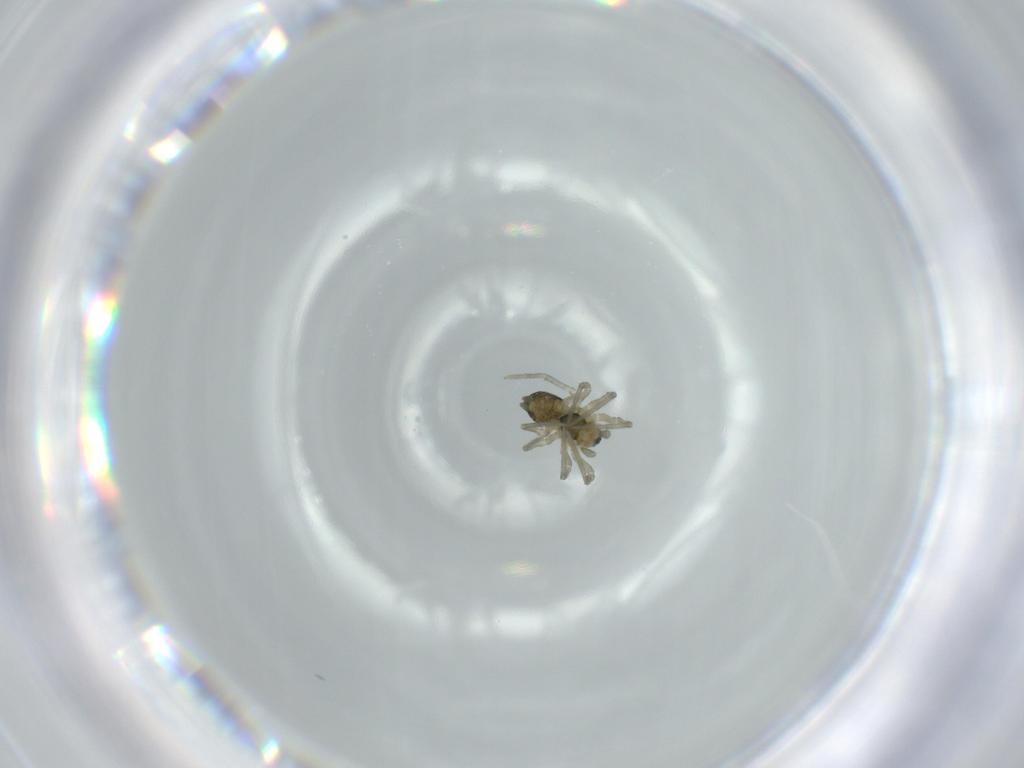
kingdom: Animalia
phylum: Arthropoda
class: Arachnida
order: Araneae
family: Linyphiidae
